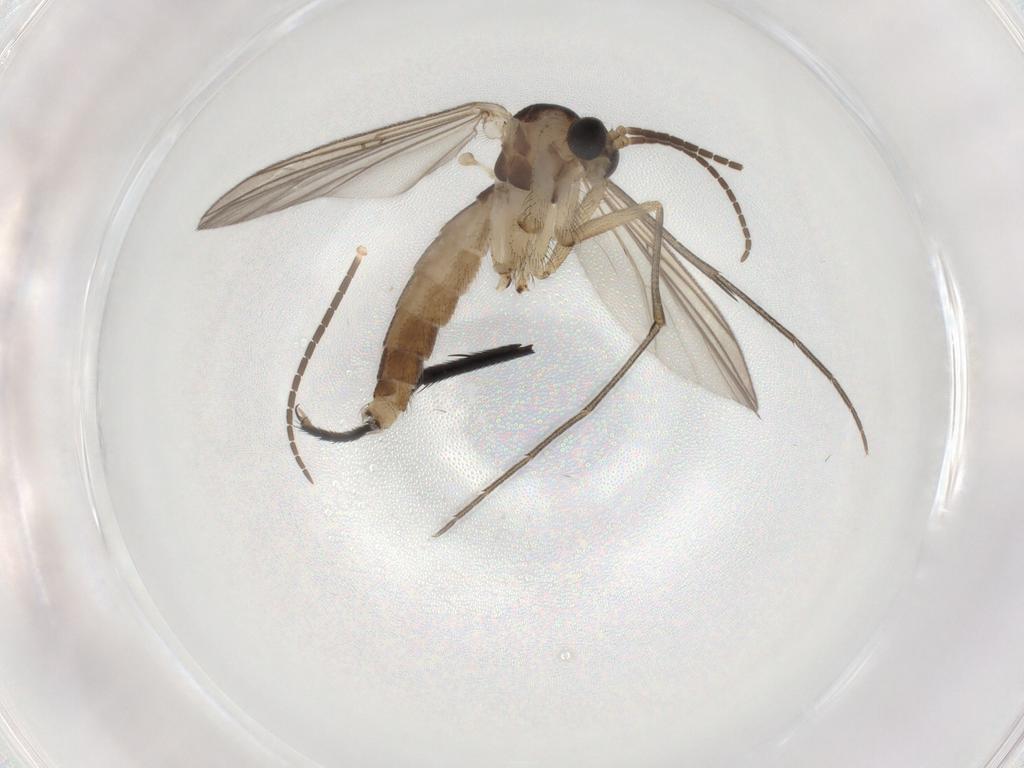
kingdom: Animalia
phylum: Arthropoda
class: Insecta
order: Diptera
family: Mycetophilidae
